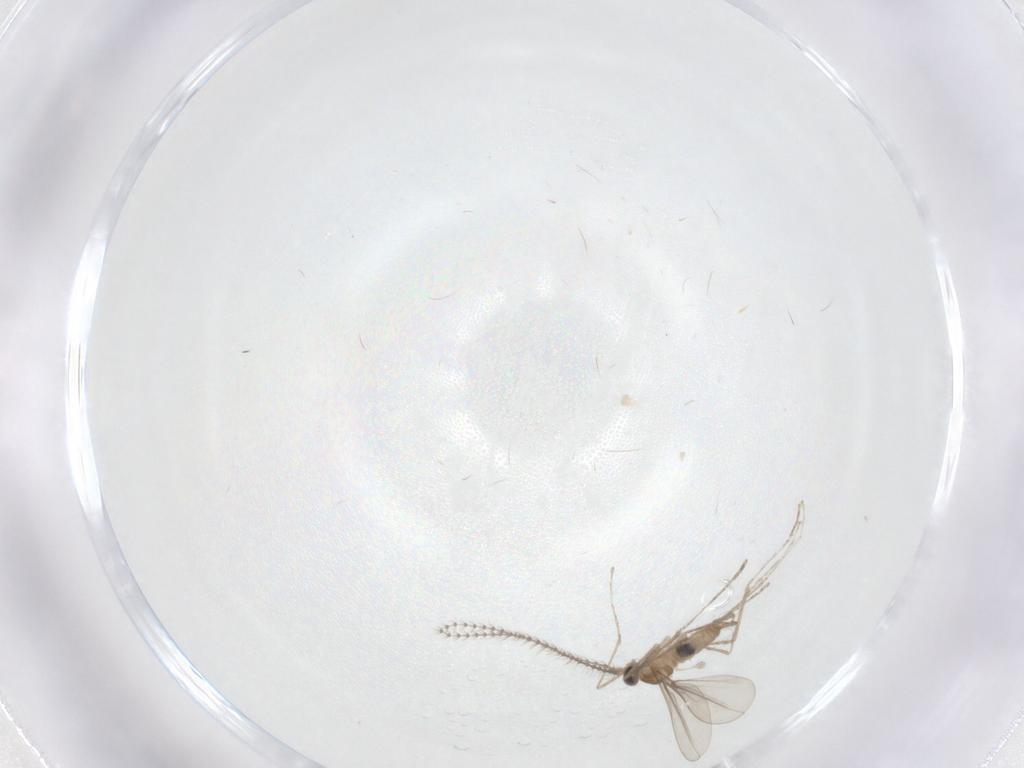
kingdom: Animalia
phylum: Arthropoda
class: Insecta
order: Diptera
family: Cecidomyiidae
